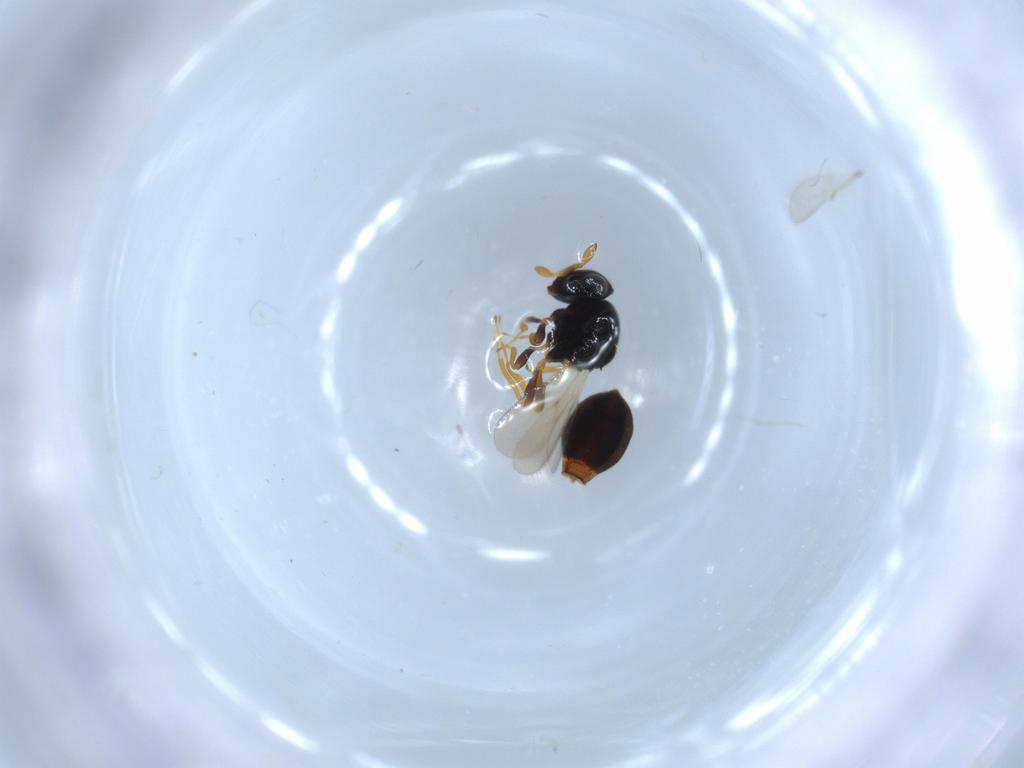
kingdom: Animalia
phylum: Arthropoda
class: Insecta
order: Hymenoptera
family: Scelionidae
